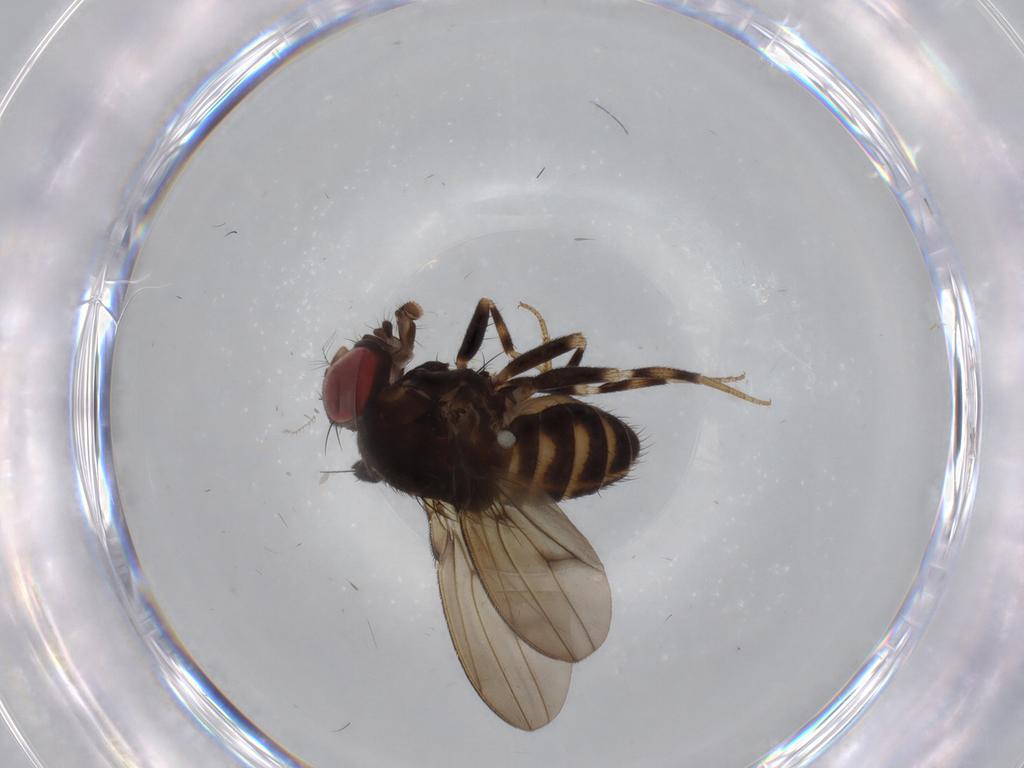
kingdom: Animalia
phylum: Arthropoda
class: Insecta
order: Diptera
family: Drosophilidae
